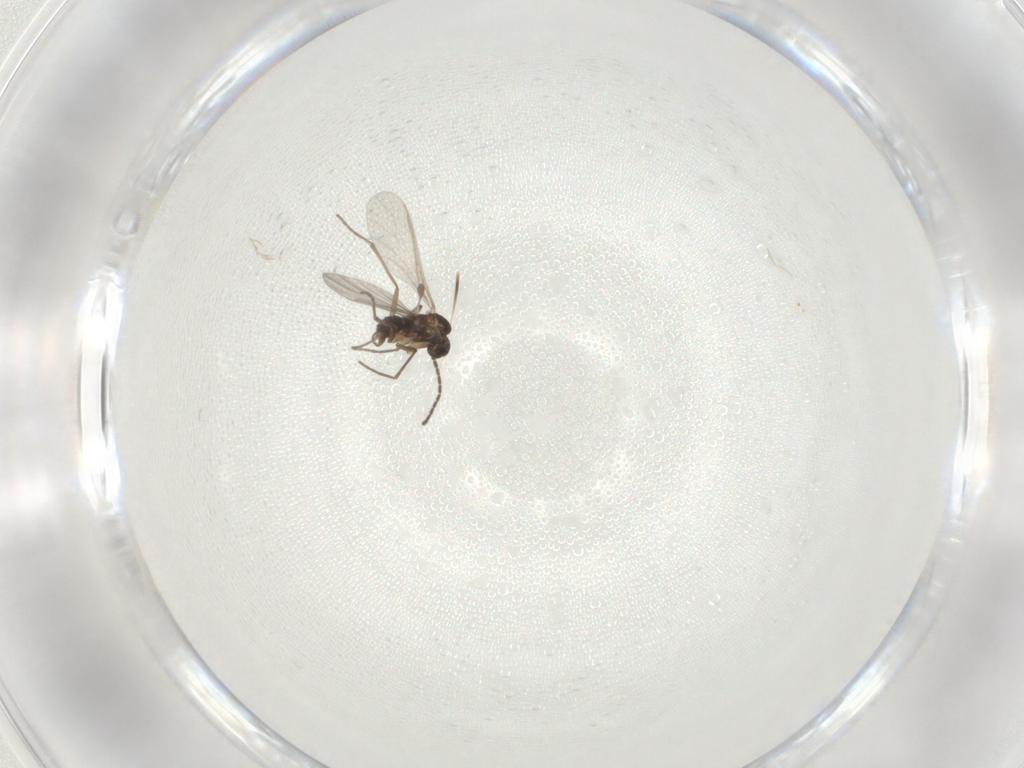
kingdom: Animalia
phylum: Arthropoda
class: Insecta
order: Diptera
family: Sciaridae
